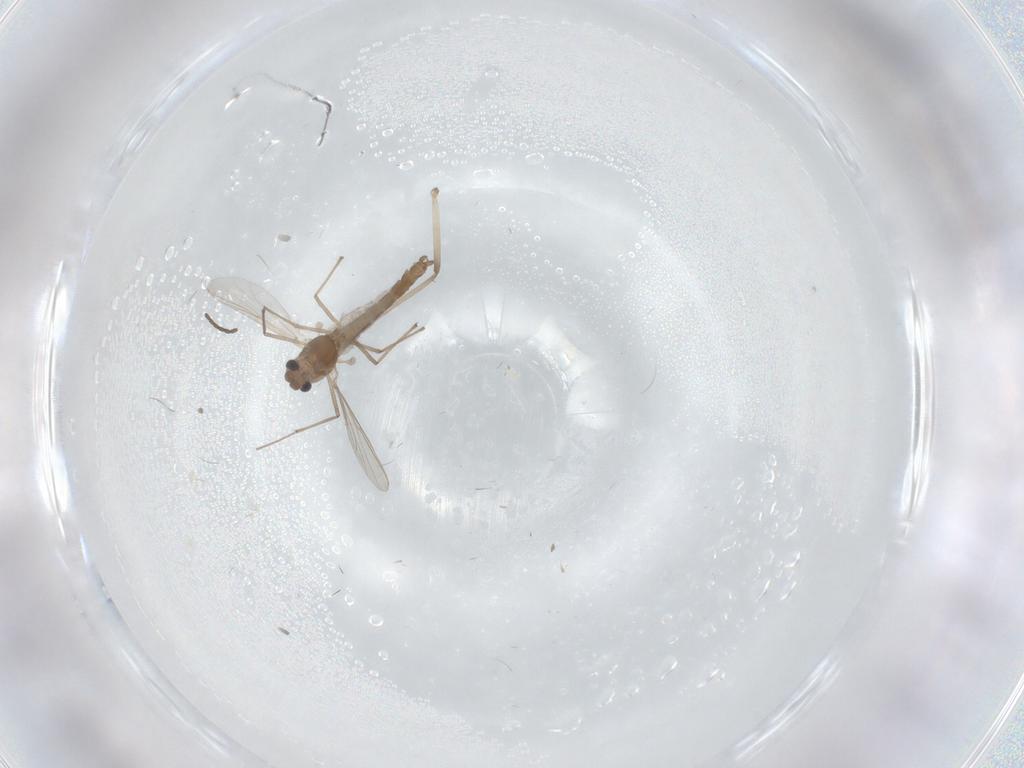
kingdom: Animalia
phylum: Arthropoda
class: Insecta
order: Diptera
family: Chironomidae
